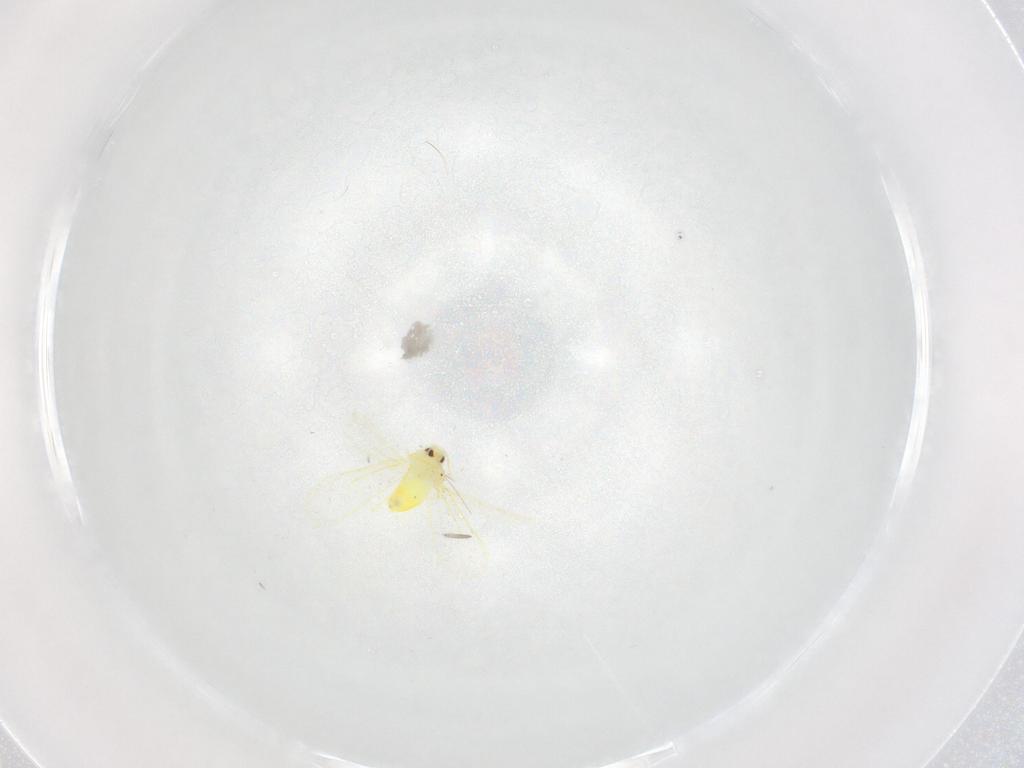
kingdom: Animalia
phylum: Arthropoda
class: Insecta
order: Hemiptera
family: Aleyrodidae
